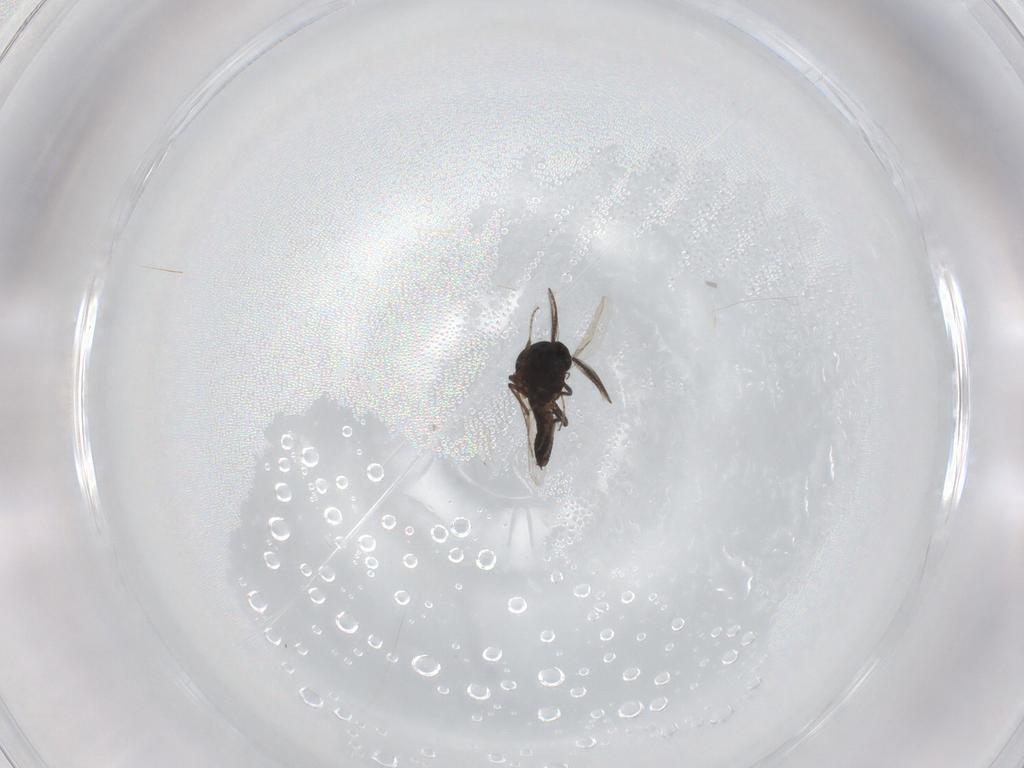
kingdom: Animalia
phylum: Arthropoda
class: Insecta
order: Diptera
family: Ceratopogonidae
